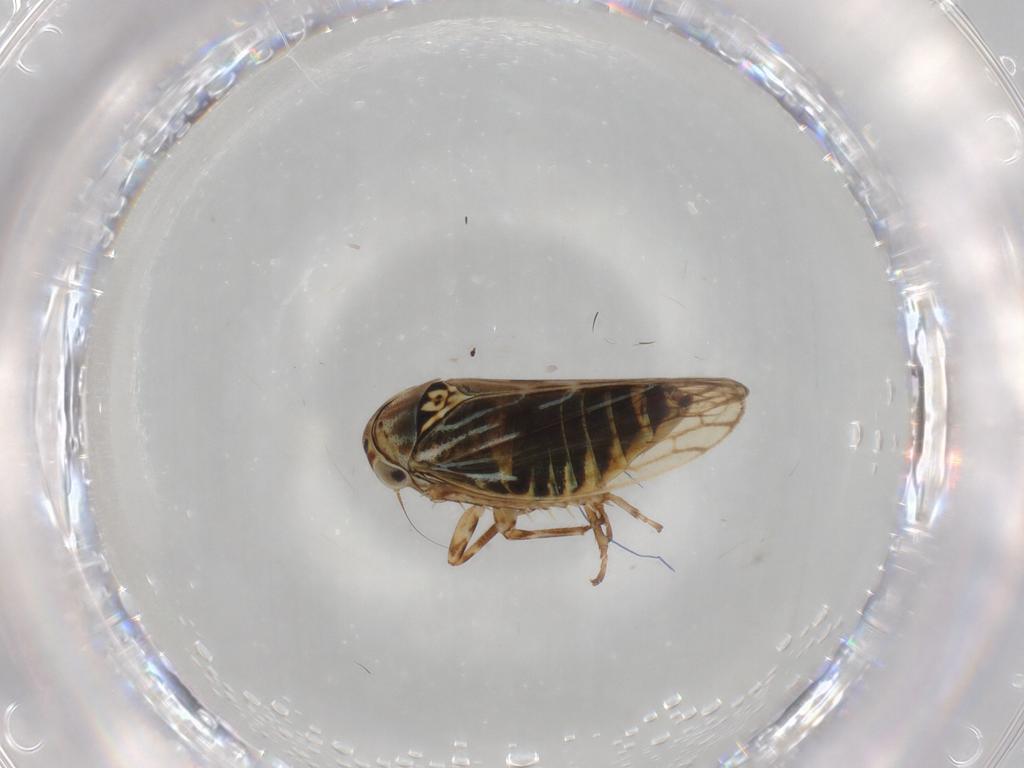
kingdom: Animalia
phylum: Arthropoda
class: Insecta
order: Hemiptera
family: Cicadellidae
